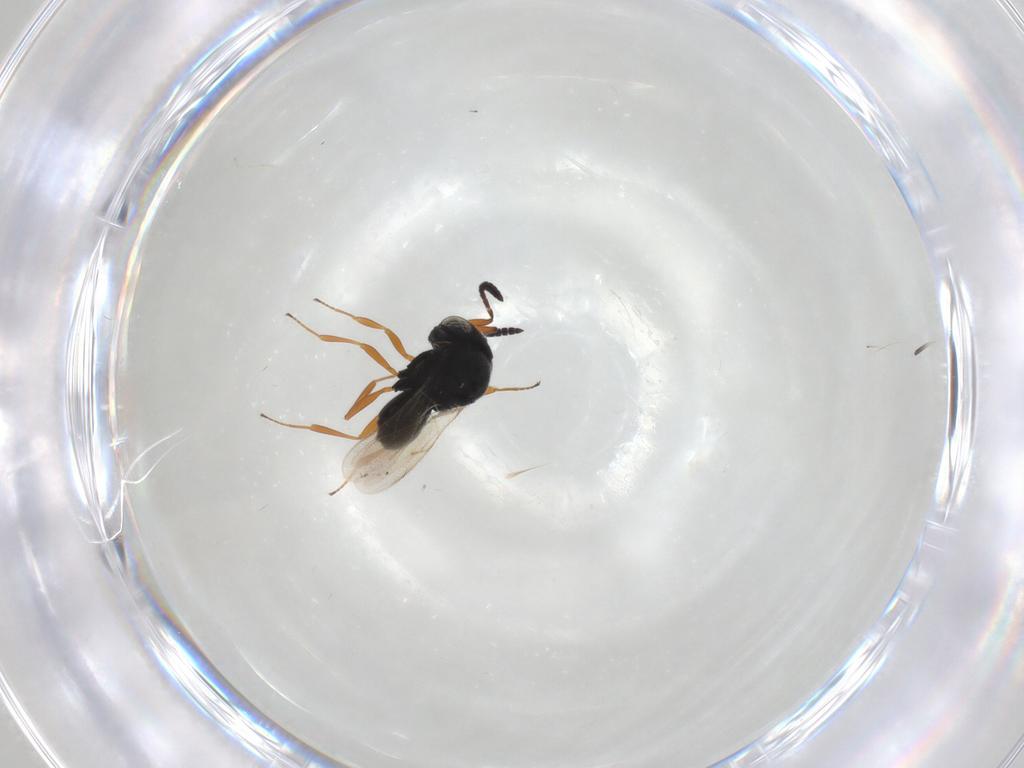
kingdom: Animalia
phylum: Arthropoda
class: Insecta
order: Hymenoptera
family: Scelionidae
